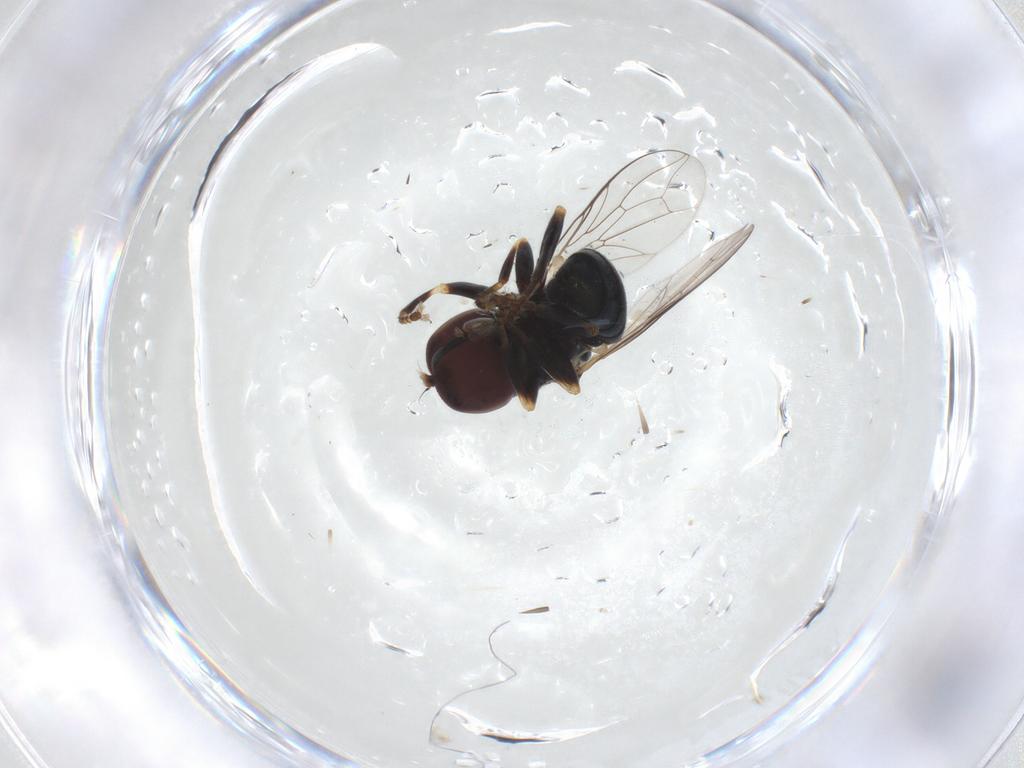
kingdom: Animalia
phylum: Arthropoda
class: Insecta
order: Diptera
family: Pipunculidae
